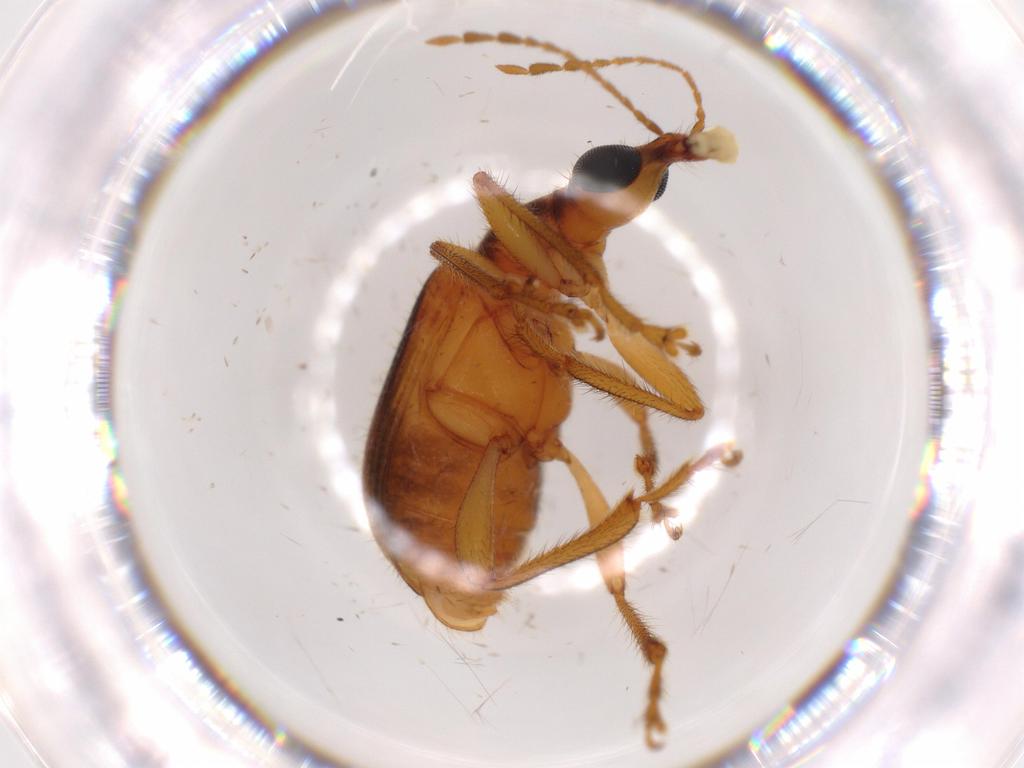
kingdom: Animalia
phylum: Arthropoda
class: Insecta
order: Coleoptera
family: Attelabidae
